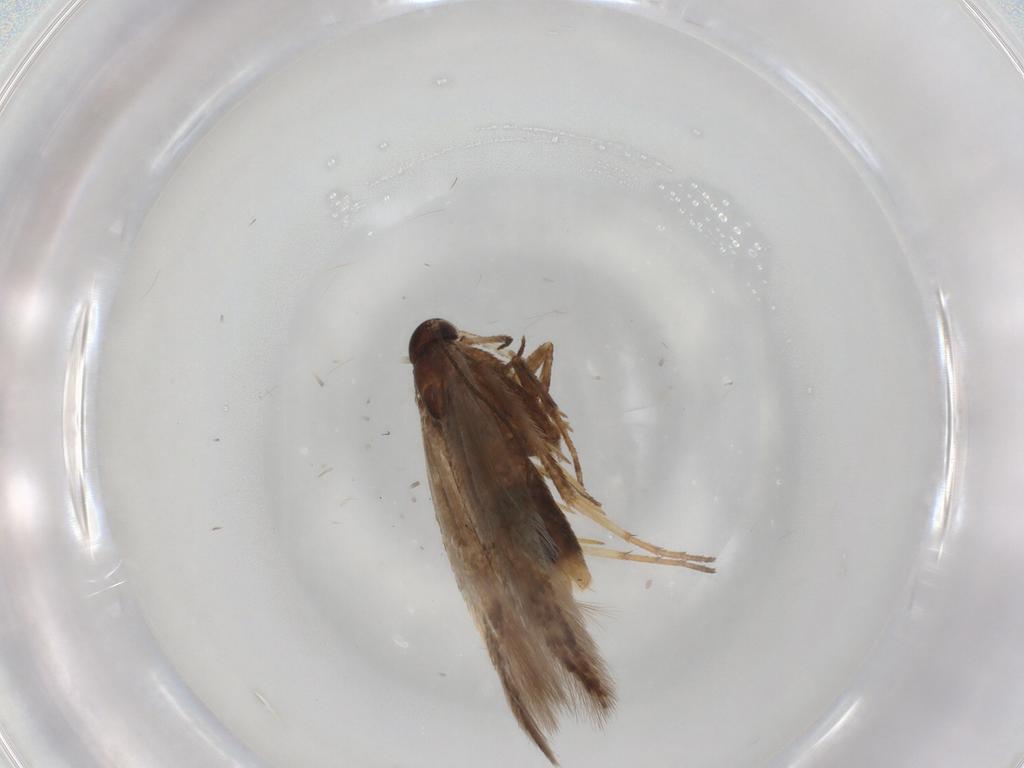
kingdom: Animalia
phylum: Arthropoda
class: Insecta
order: Lepidoptera
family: Gelechiidae
